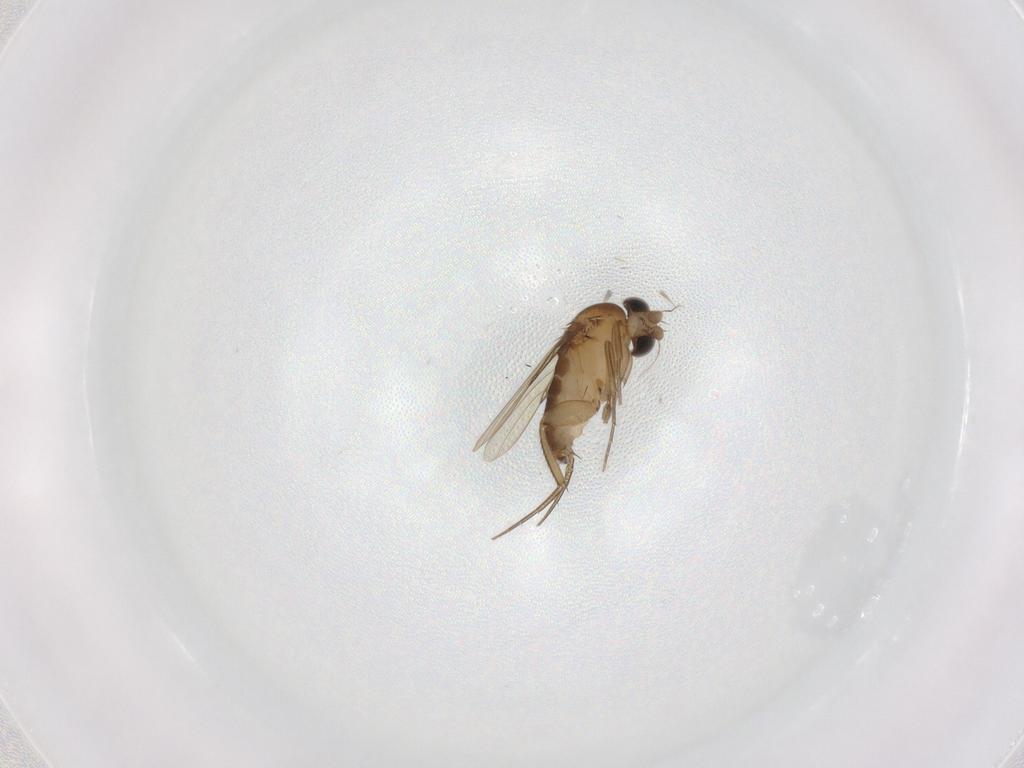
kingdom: Animalia
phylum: Arthropoda
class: Insecta
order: Diptera
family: Phoridae
